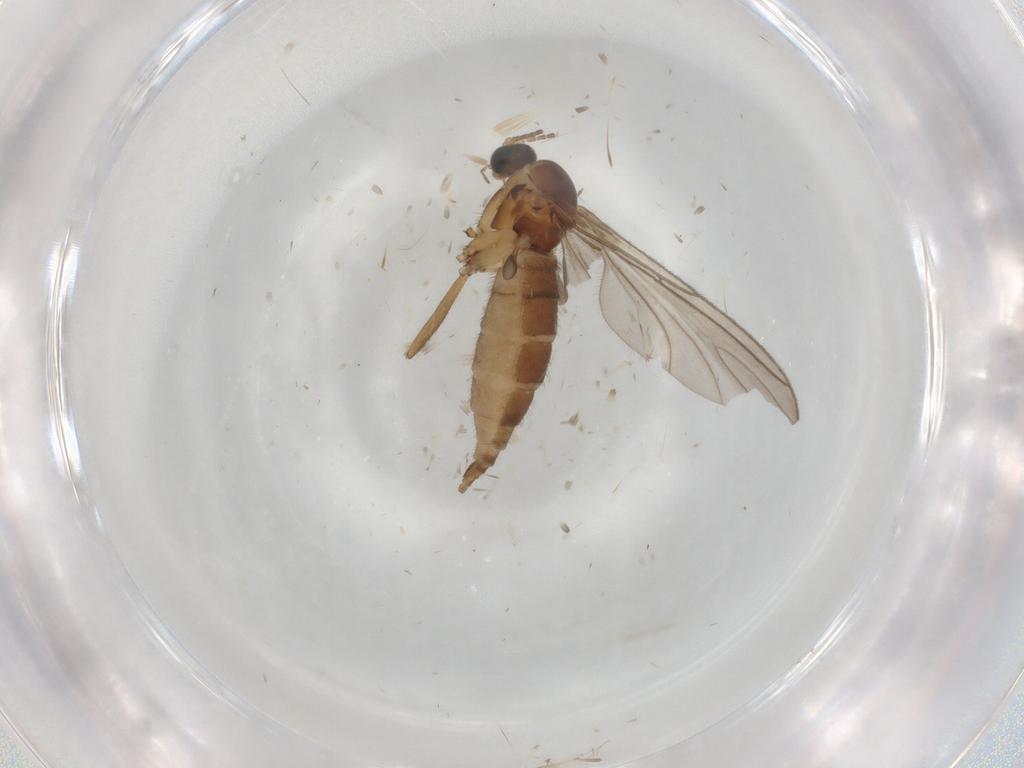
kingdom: Animalia
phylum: Arthropoda
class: Insecta
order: Diptera
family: Sciaridae
